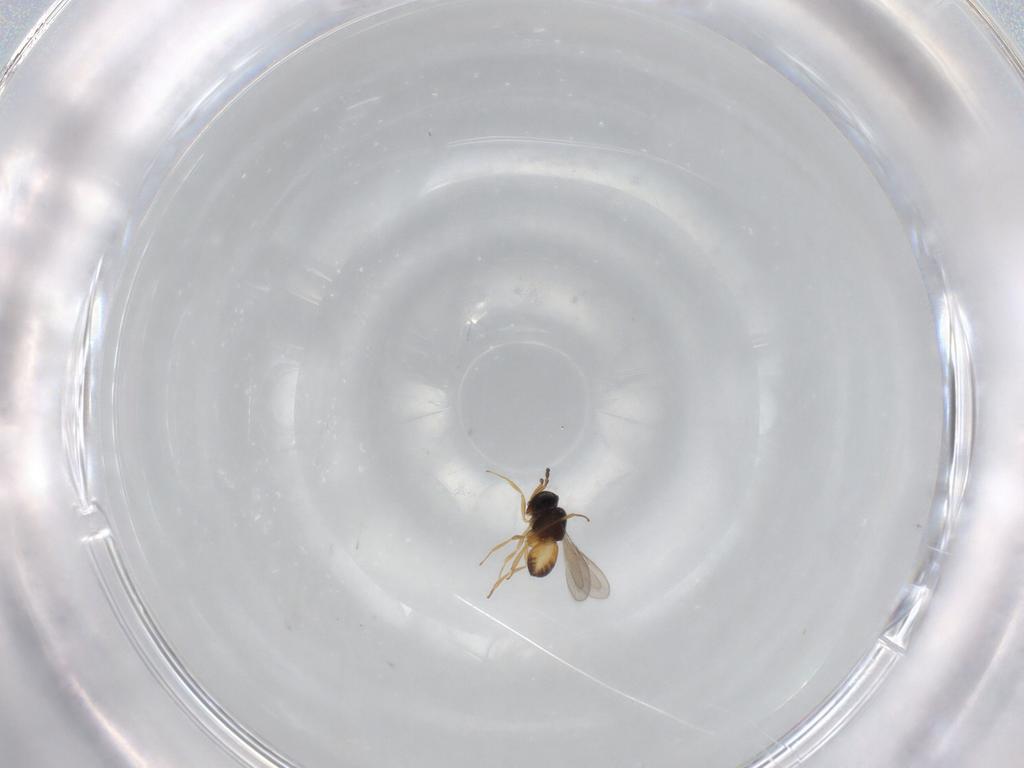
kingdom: Animalia
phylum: Arthropoda
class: Insecta
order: Hymenoptera
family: Scelionidae
